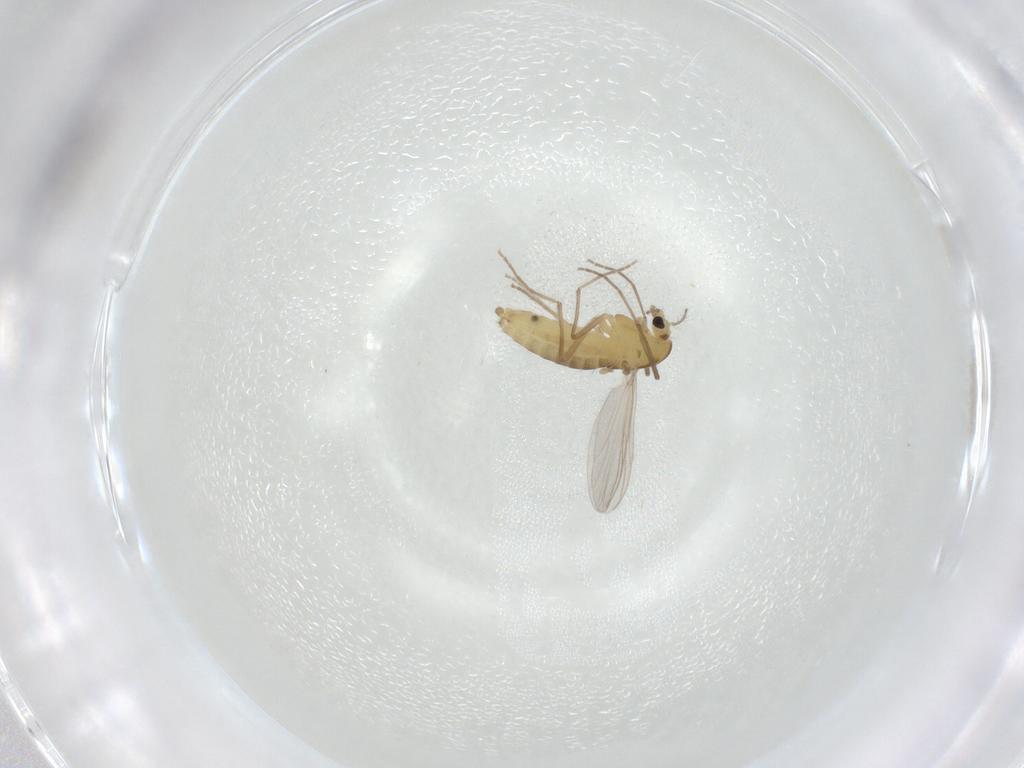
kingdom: Animalia
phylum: Arthropoda
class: Insecta
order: Diptera
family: Chironomidae
